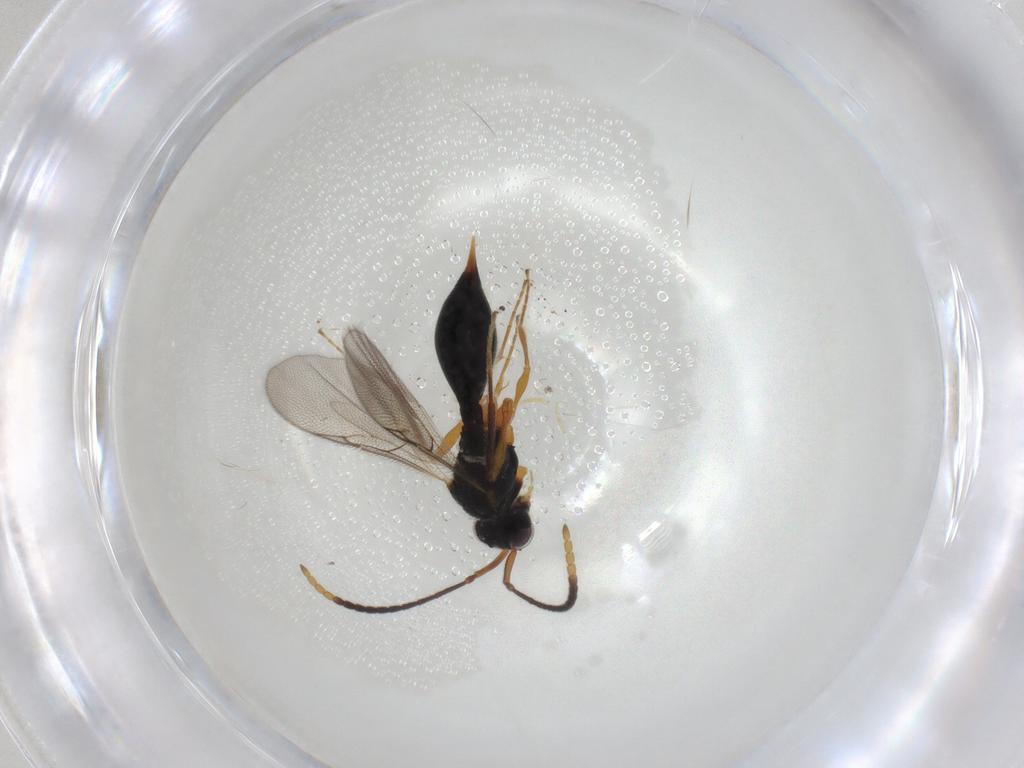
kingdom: Animalia
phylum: Arthropoda
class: Insecta
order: Hymenoptera
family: Diapriidae
